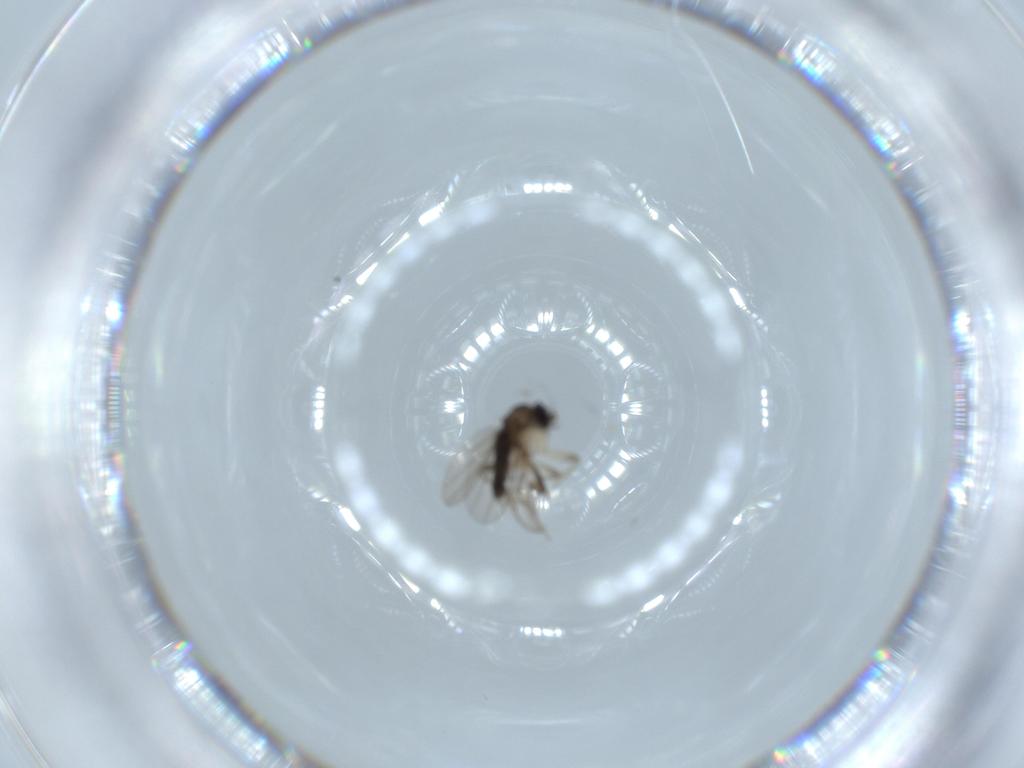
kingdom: Animalia
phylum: Arthropoda
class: Insecta
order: Diptera
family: Phoridae
